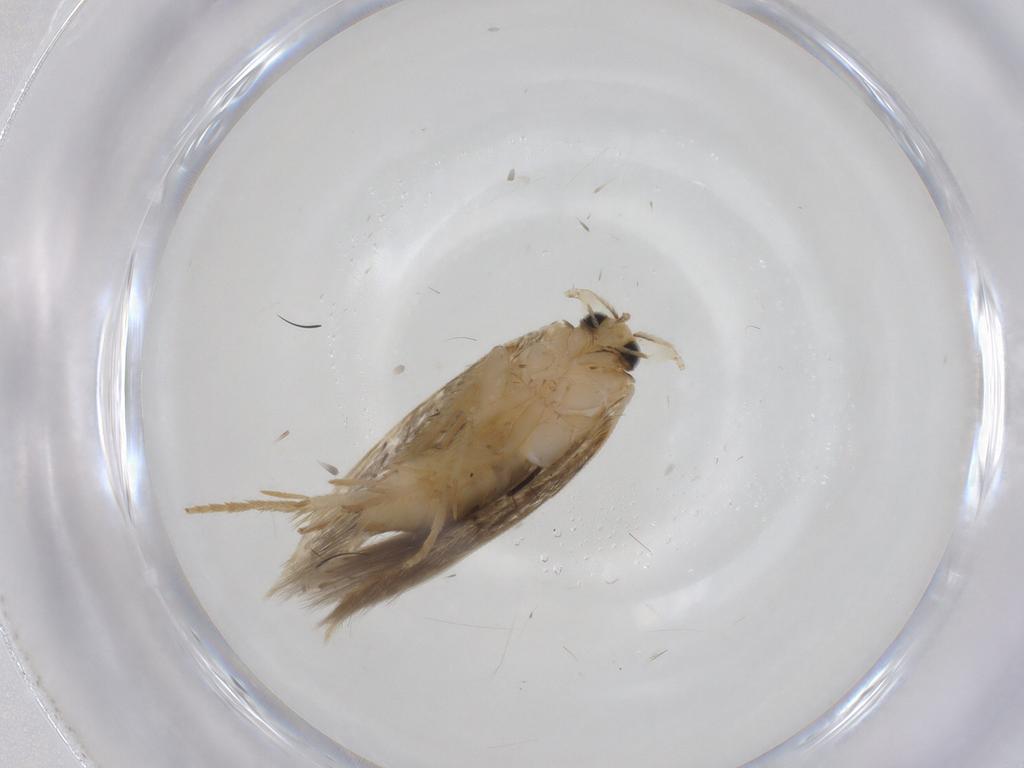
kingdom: Animalia
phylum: Arthropoda
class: Insecta
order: Lepidoptera
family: Opostegidae
